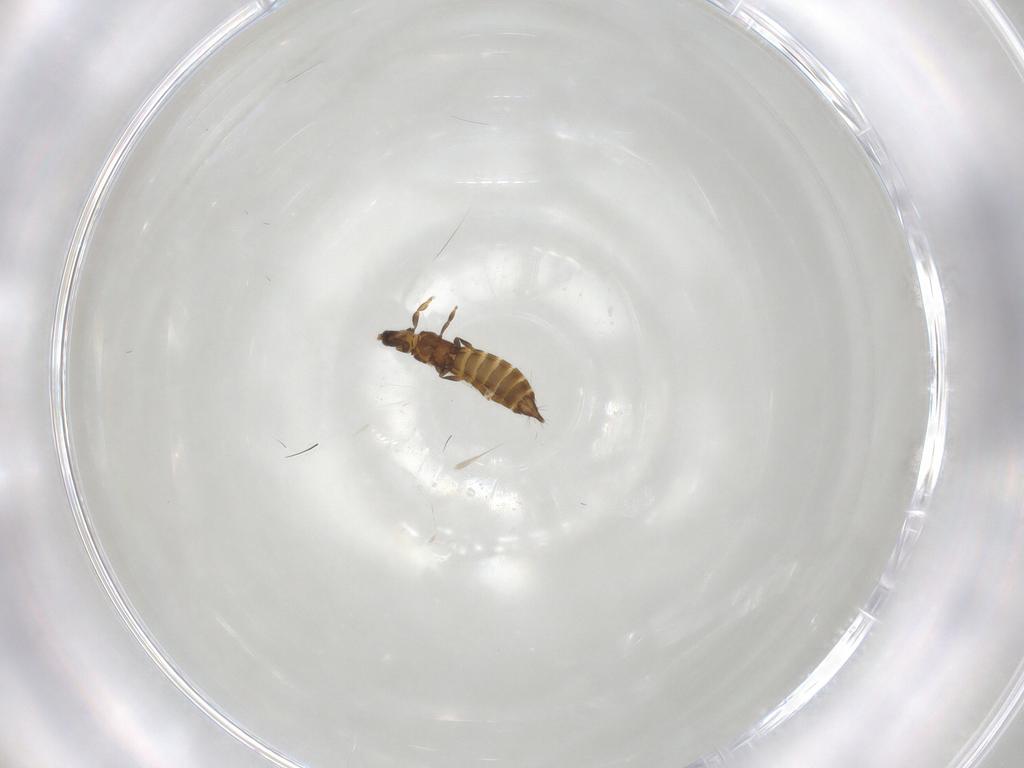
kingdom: Animalia
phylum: Arthropoda
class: Insecta
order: Thysanoptera
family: Thripidae
